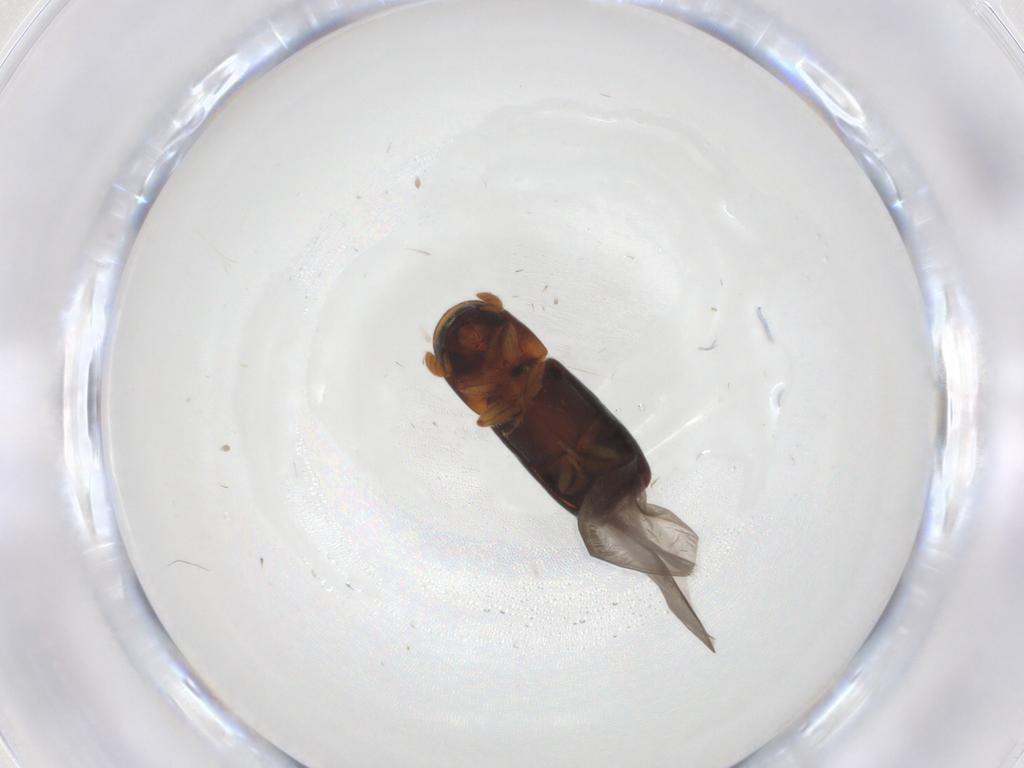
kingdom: Animalia
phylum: Arthropoda
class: Insecta
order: Coleoptera
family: Curculionidae
